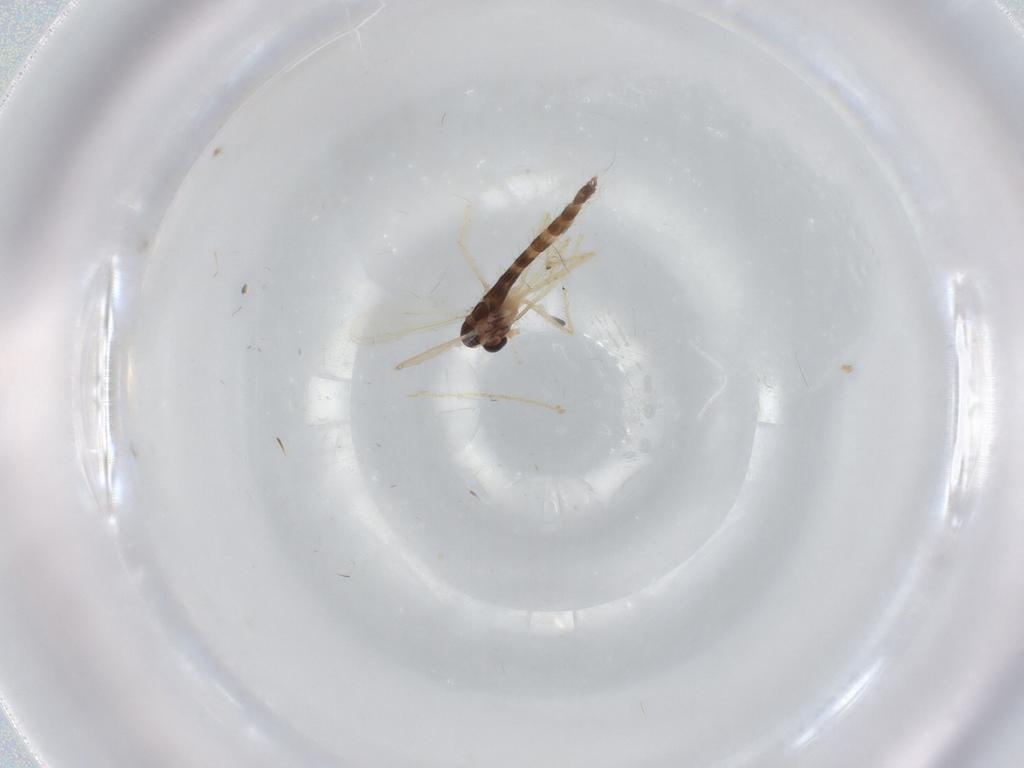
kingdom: Animalia
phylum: Arthropoda
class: Insecta
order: Diptera
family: Chironomidae
